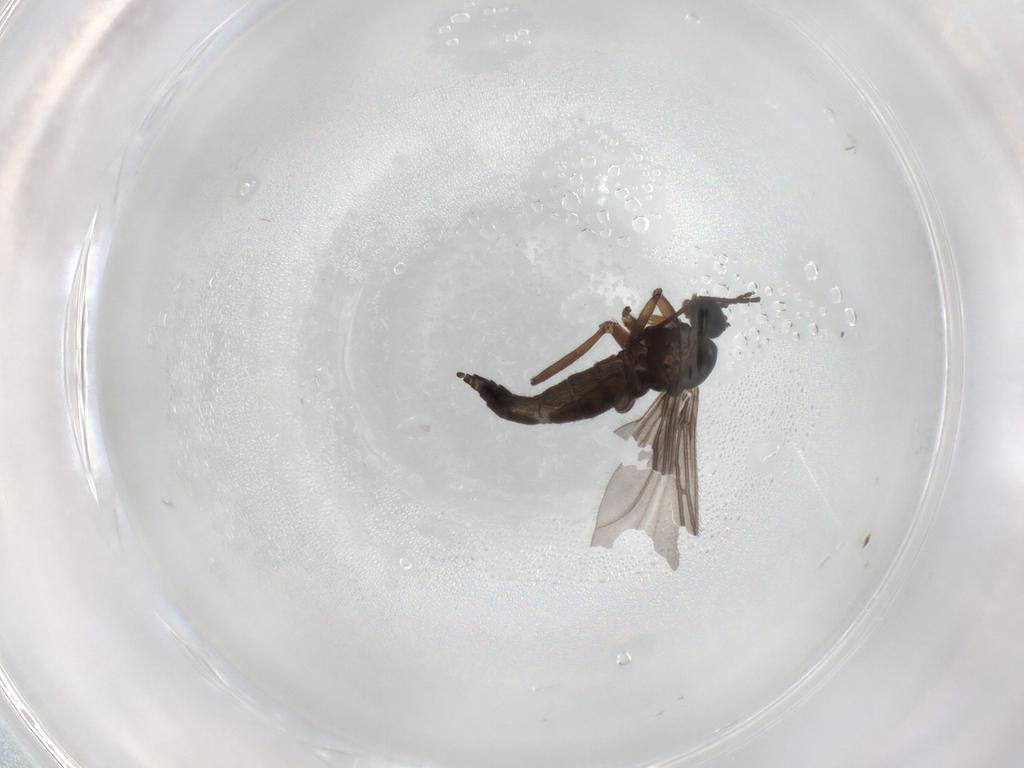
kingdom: Animalia
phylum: Arthropoda
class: Insecta
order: Diptera
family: Sciaridae
